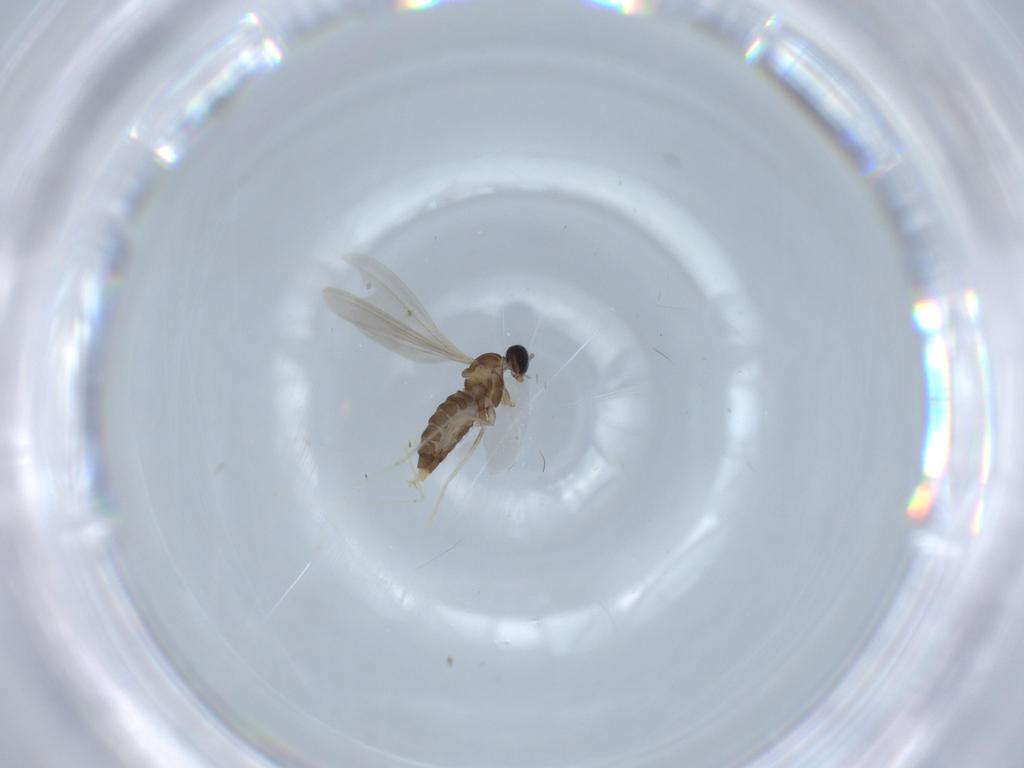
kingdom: Animalia
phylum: Arthropoda
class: Insecta
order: Diptera
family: Cecidomyiidae
